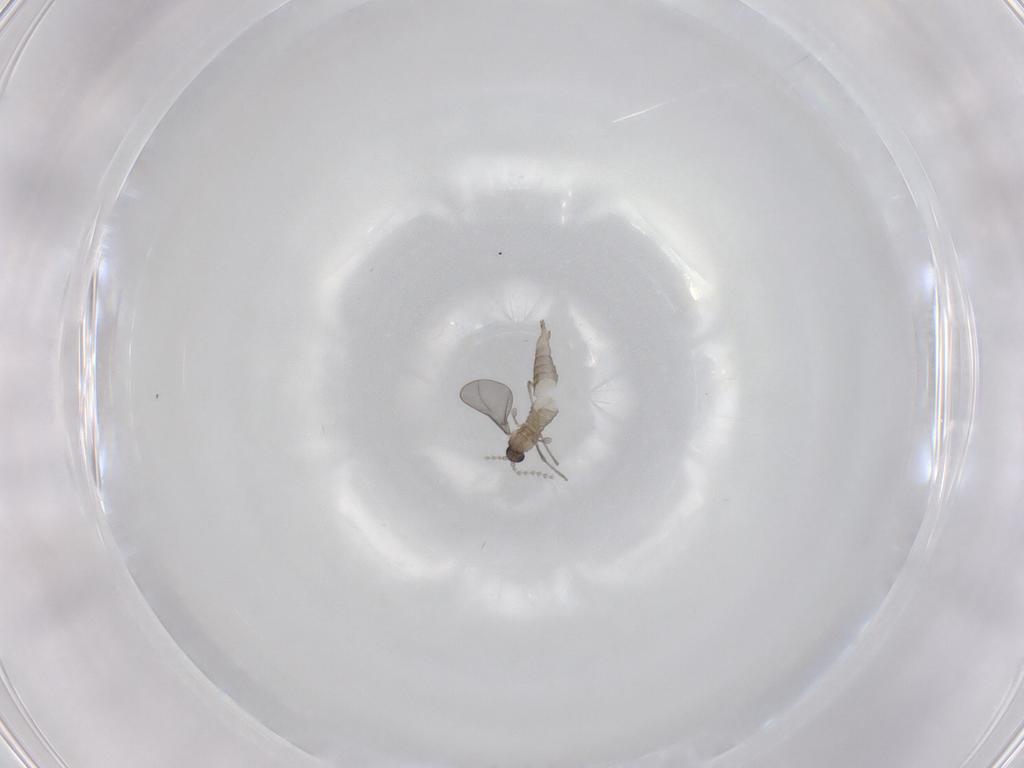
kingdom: Animalia
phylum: Arthropoda
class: Insecta
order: Diptera
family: Cecidomyiidae
